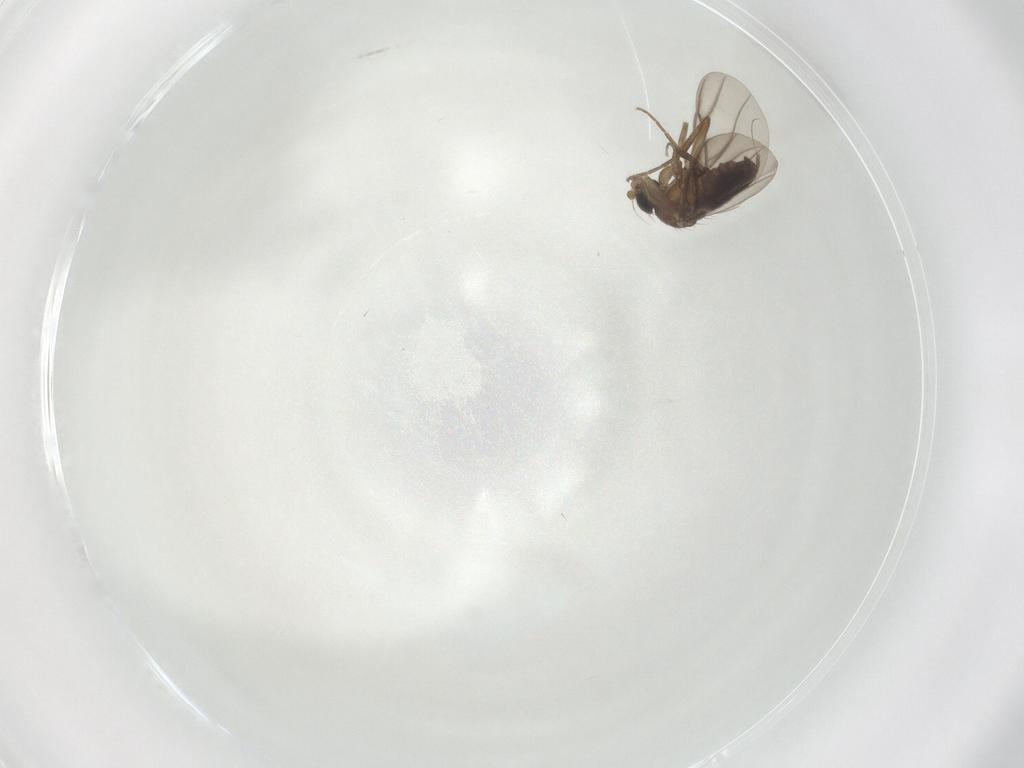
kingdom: Animalia
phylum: Arthropoda
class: Insecta
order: Diptera
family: Phoridae
